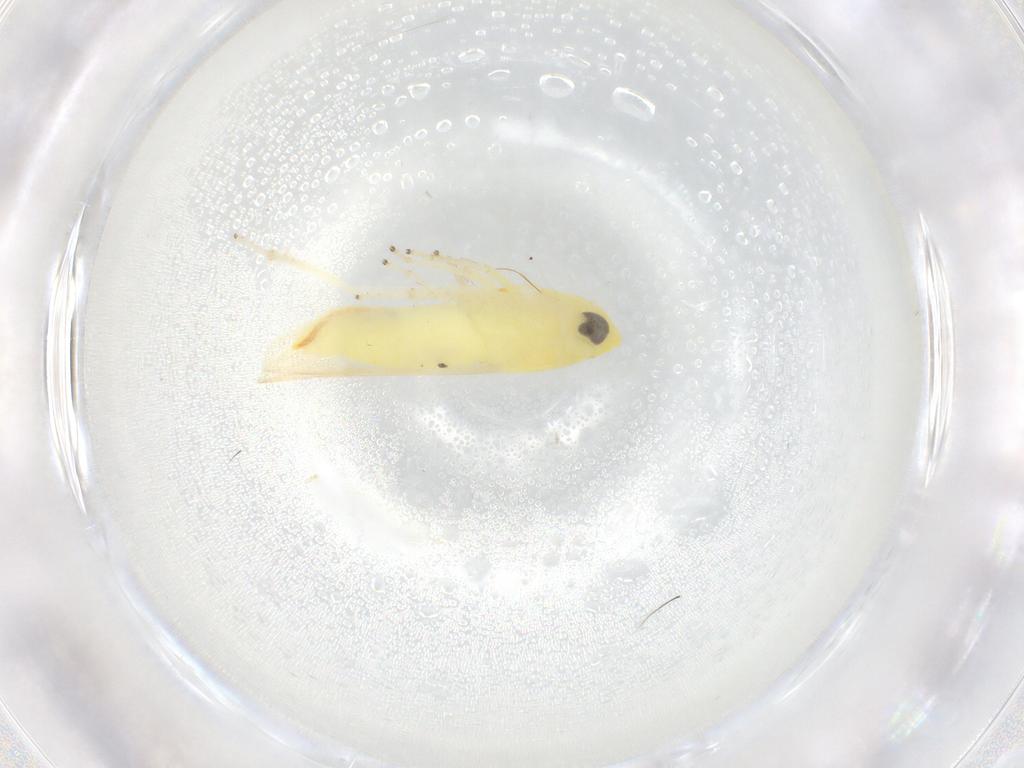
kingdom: Animalia
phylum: Arthropoda
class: Insecta
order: Hemiptera
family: Cicadellidae
